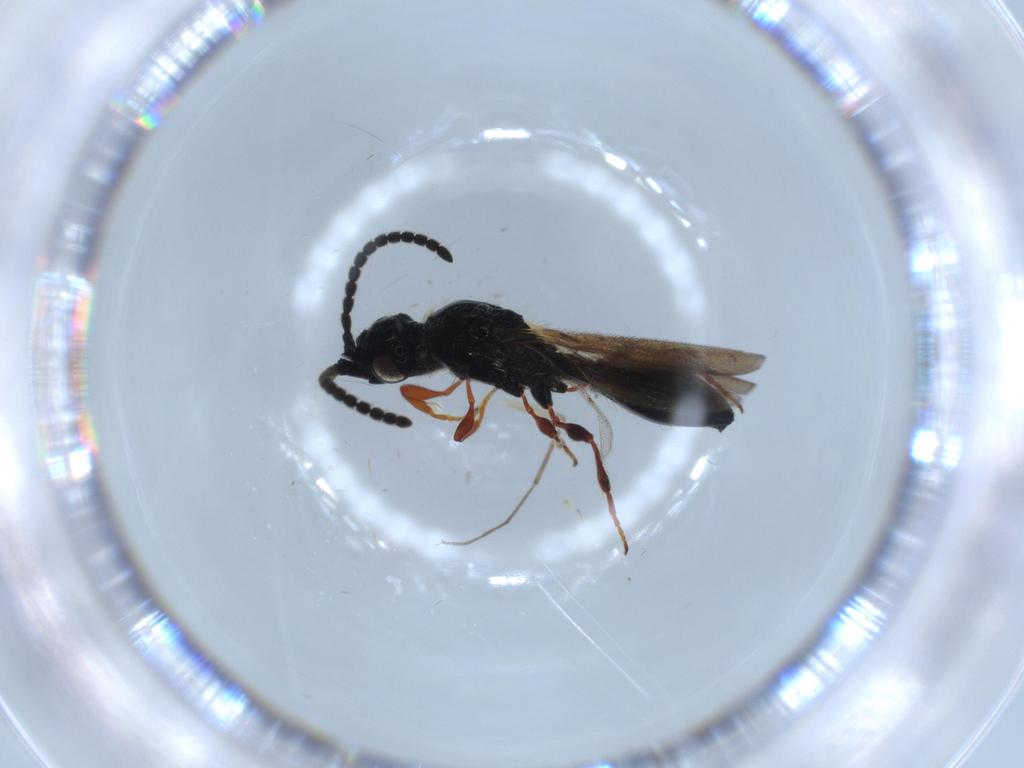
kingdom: Animalia
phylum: Arthropoda
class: Insecta
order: Hymenoptera
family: Diapriidae
